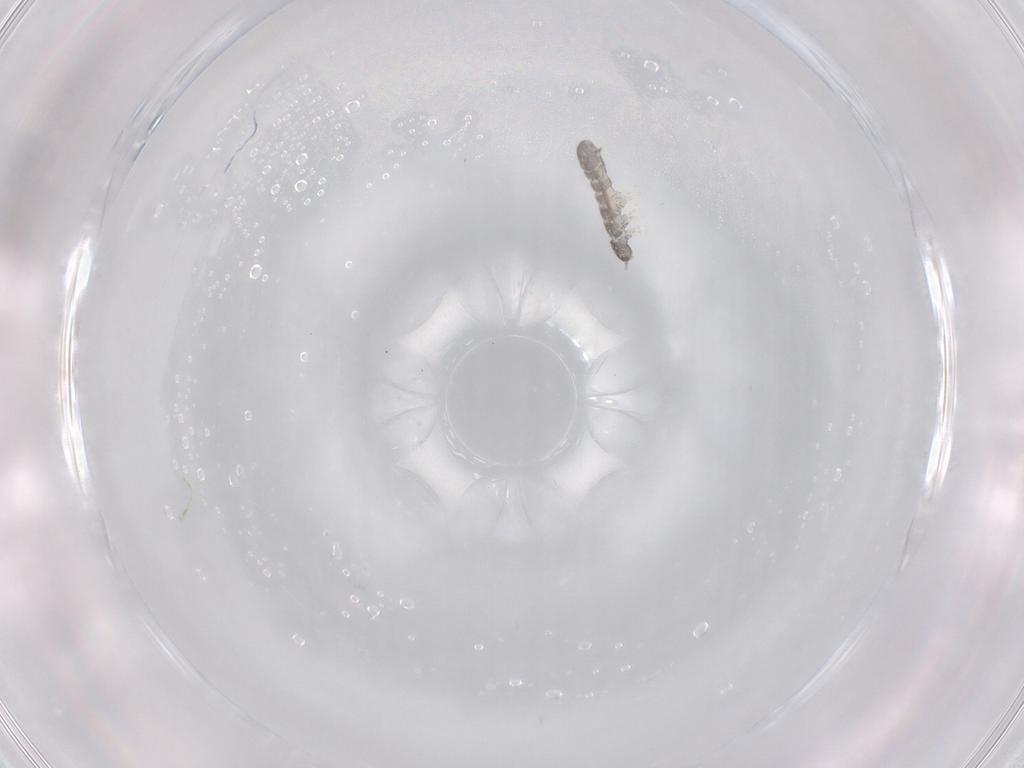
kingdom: Animalia
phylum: Arthropoda
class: Collembola
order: Entomobryomorpha
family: Isotomidae
